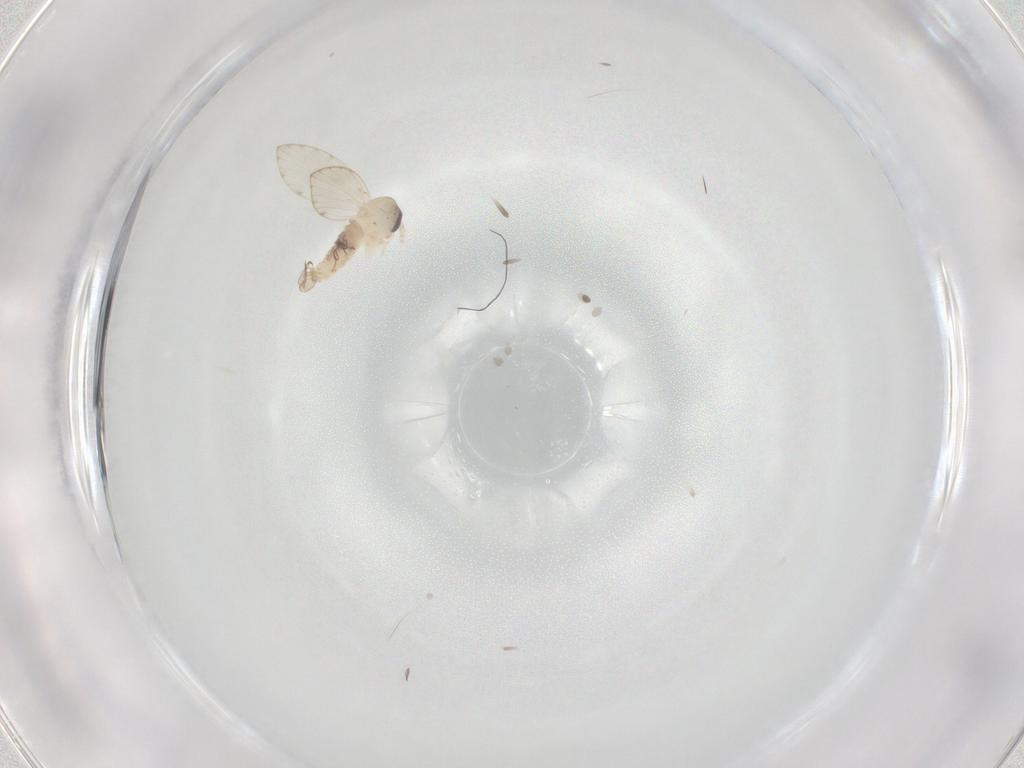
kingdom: Animalia
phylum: Arthropoda
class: Insecta
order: Diptera
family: Psychodidae
